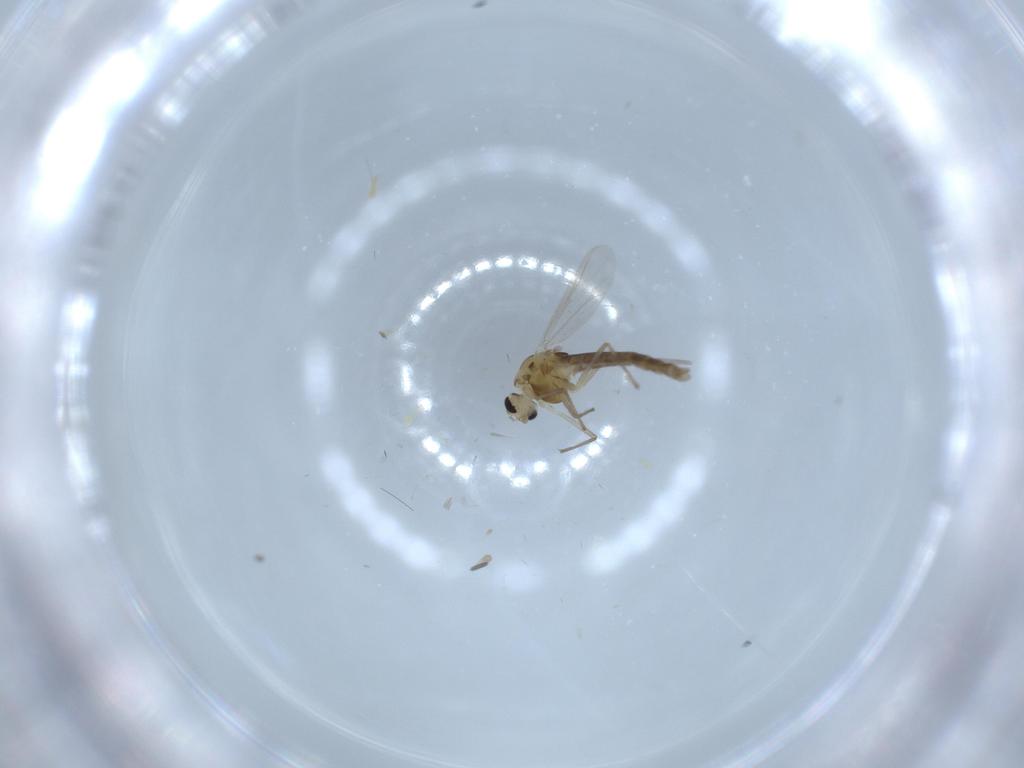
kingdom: Animalia
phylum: Arthropoda
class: Insecta
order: Diptera
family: Chironomidae
